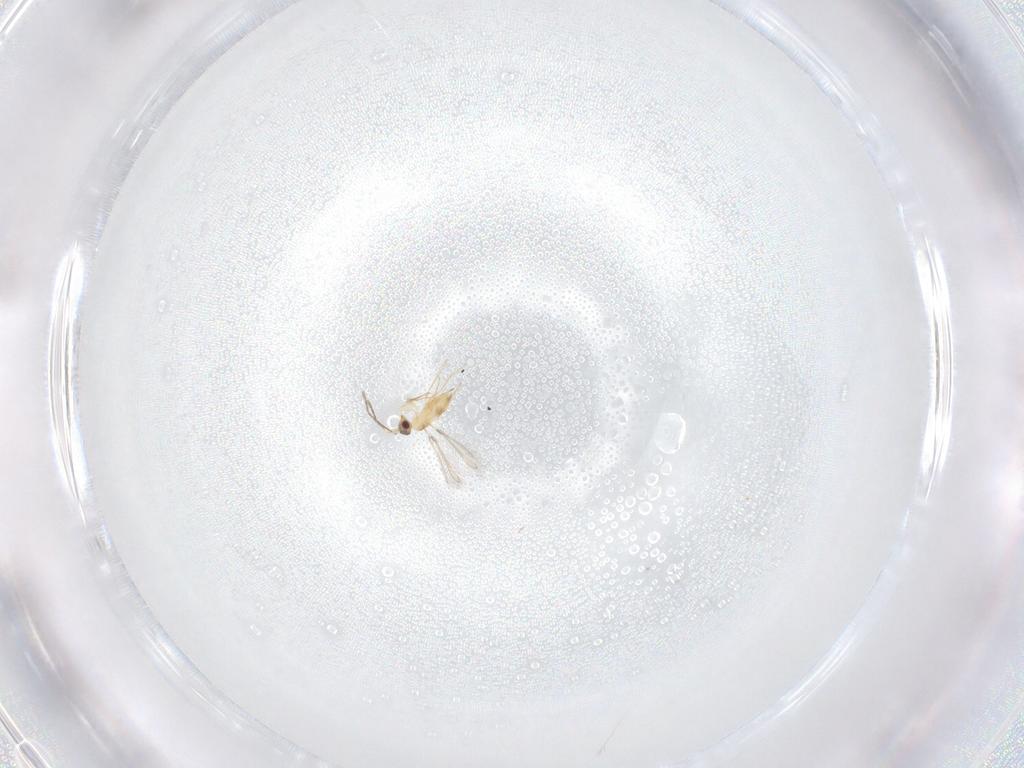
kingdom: Animalia
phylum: Arthropoda
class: Insecta
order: Hymenoptera
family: Mymaridae
